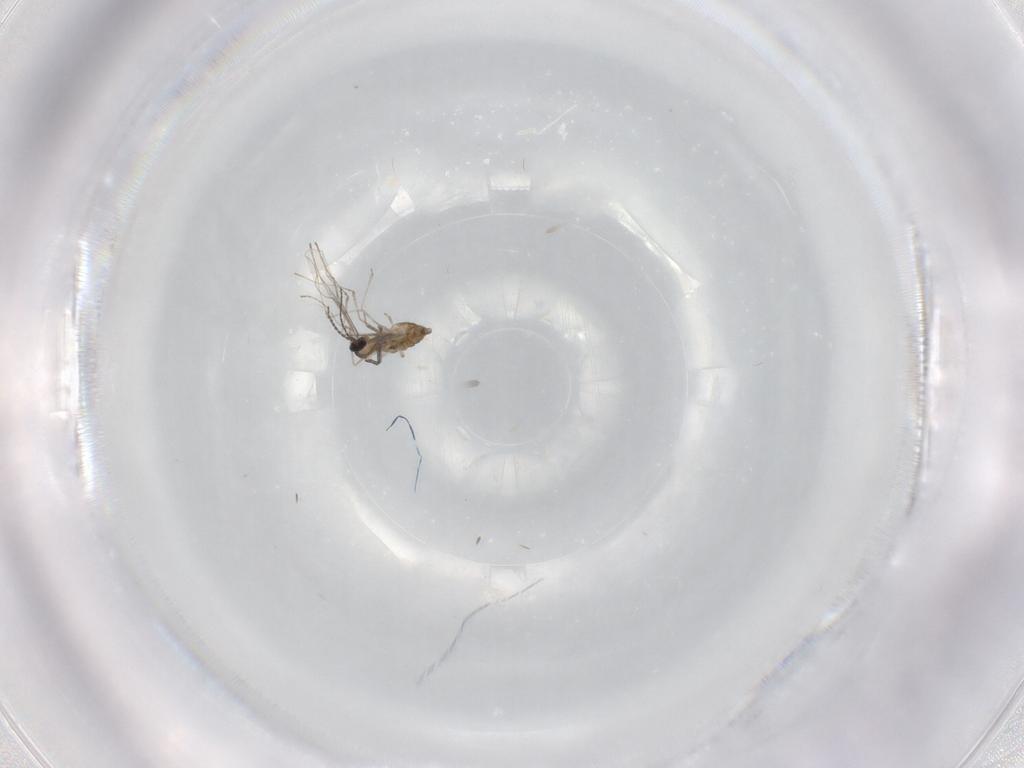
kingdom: Animalia
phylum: Arthropoda
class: Insecta
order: Diptera
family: Cecidomyiidae
